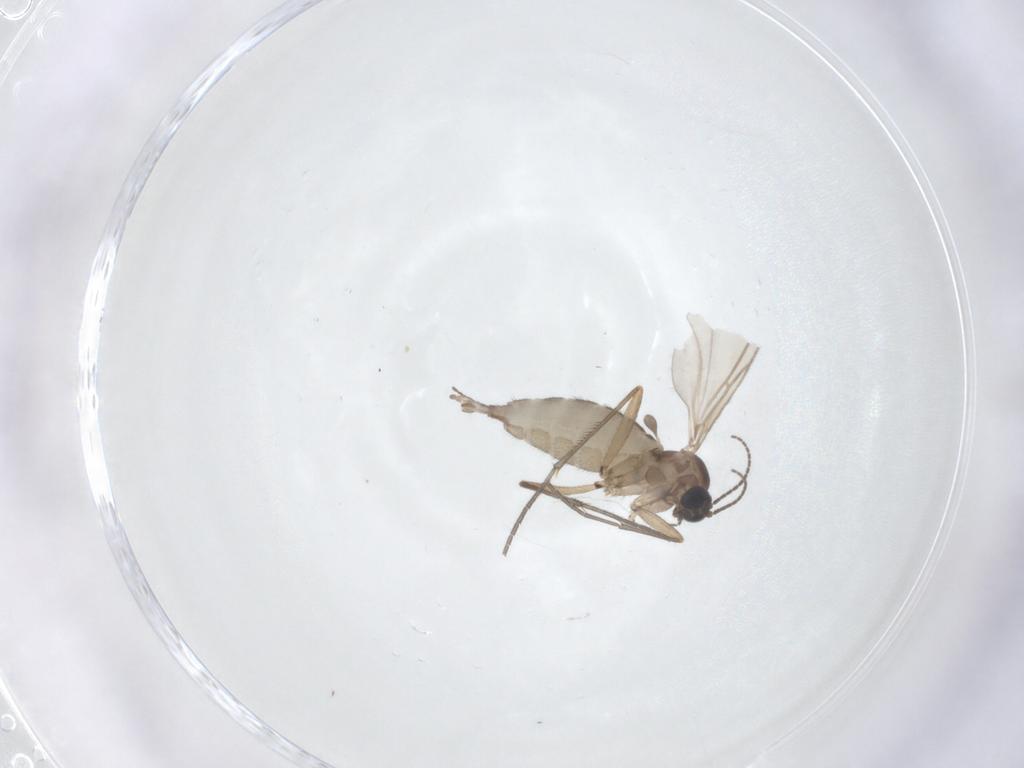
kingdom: Animalia
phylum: Arthropoda
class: Insecta
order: Diptera
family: Sciaridae
